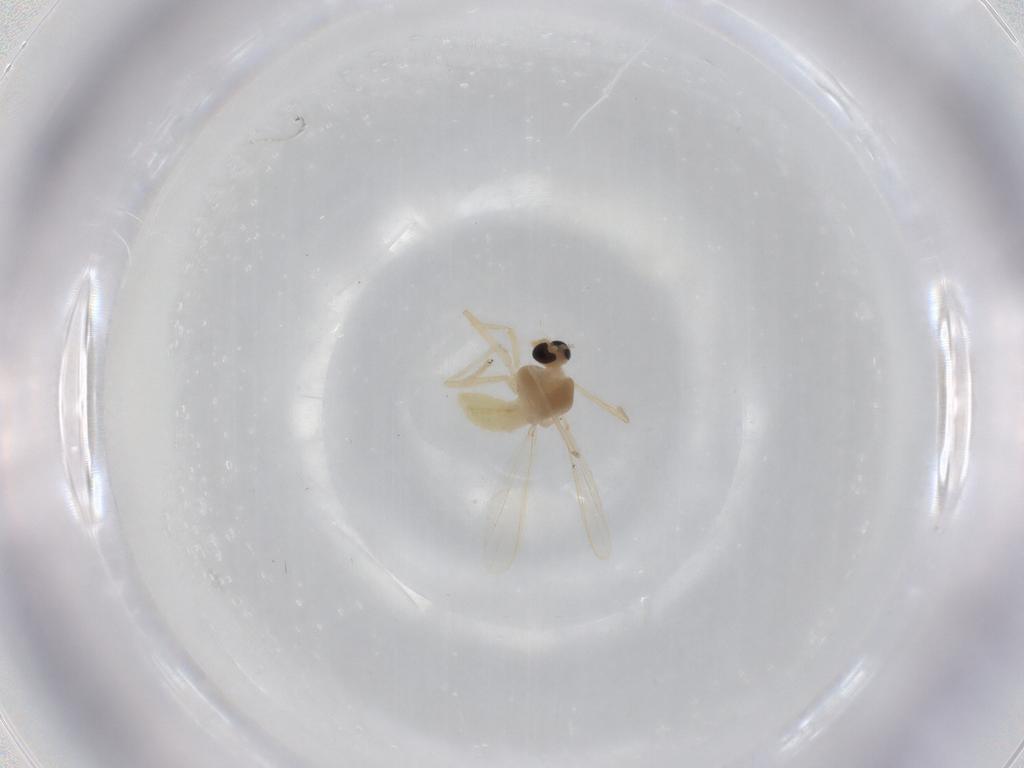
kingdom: Animalia
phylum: Arthropoda
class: Insecta
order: Diptera
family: Chironomidae
